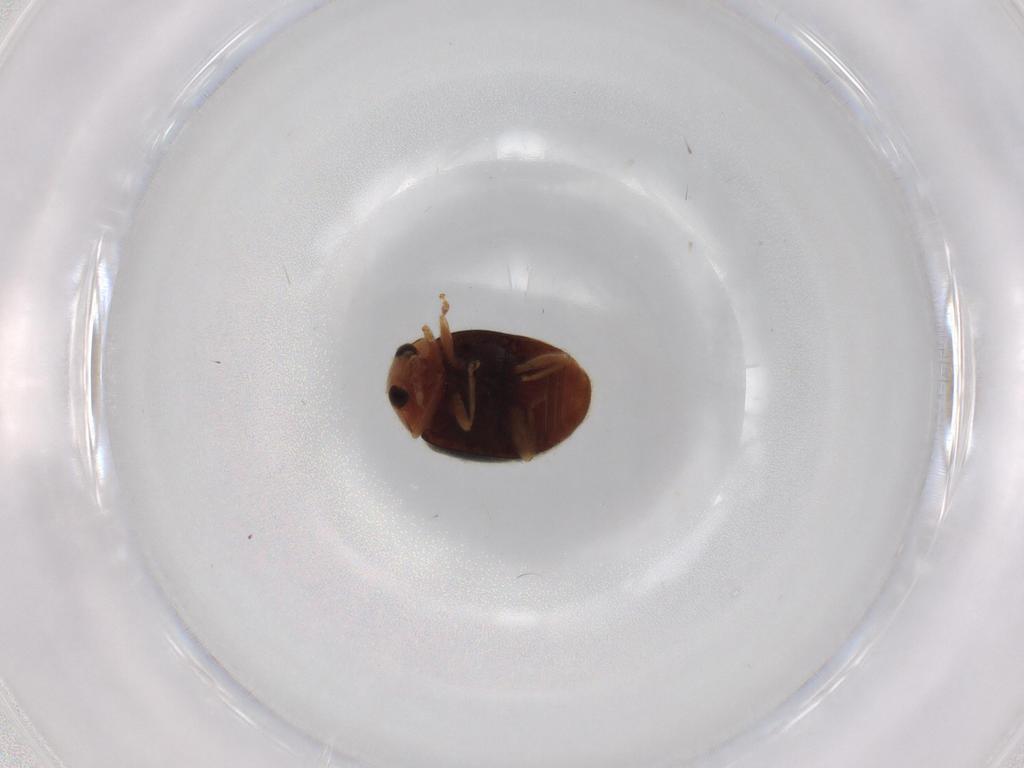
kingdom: Animalia
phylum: Arthropoda
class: Insecta
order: Coleoptera
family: Coccinellidae
